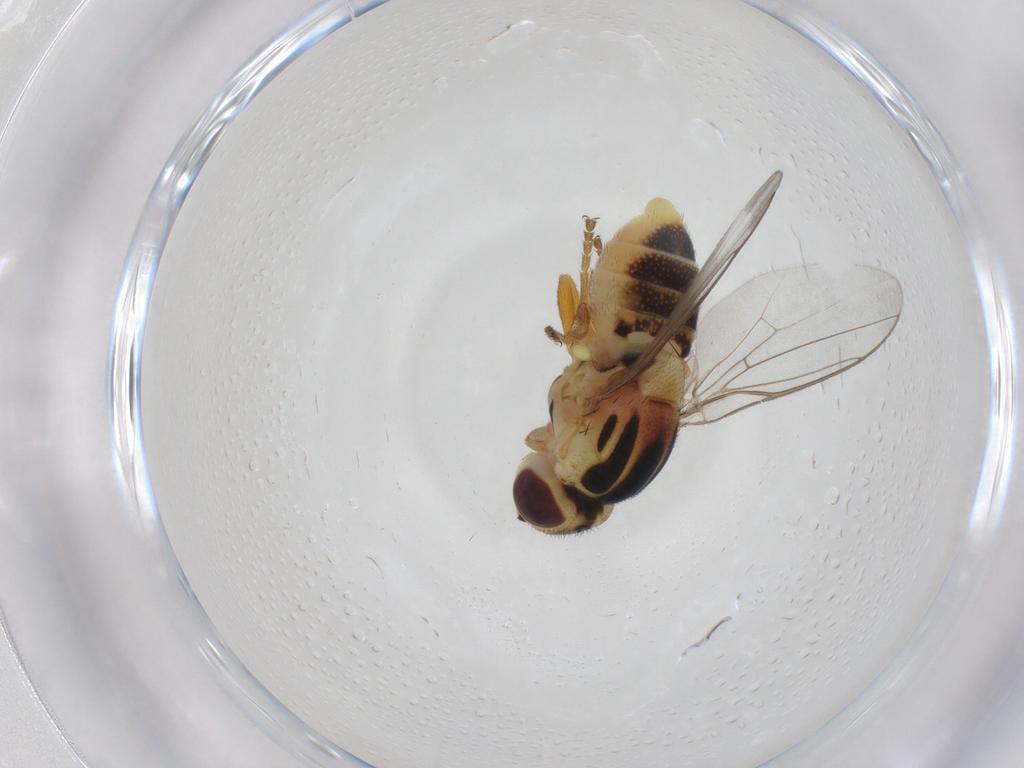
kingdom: Animalia
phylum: Arthropoda
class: Insecta
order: Diptera
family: Chloropidae
